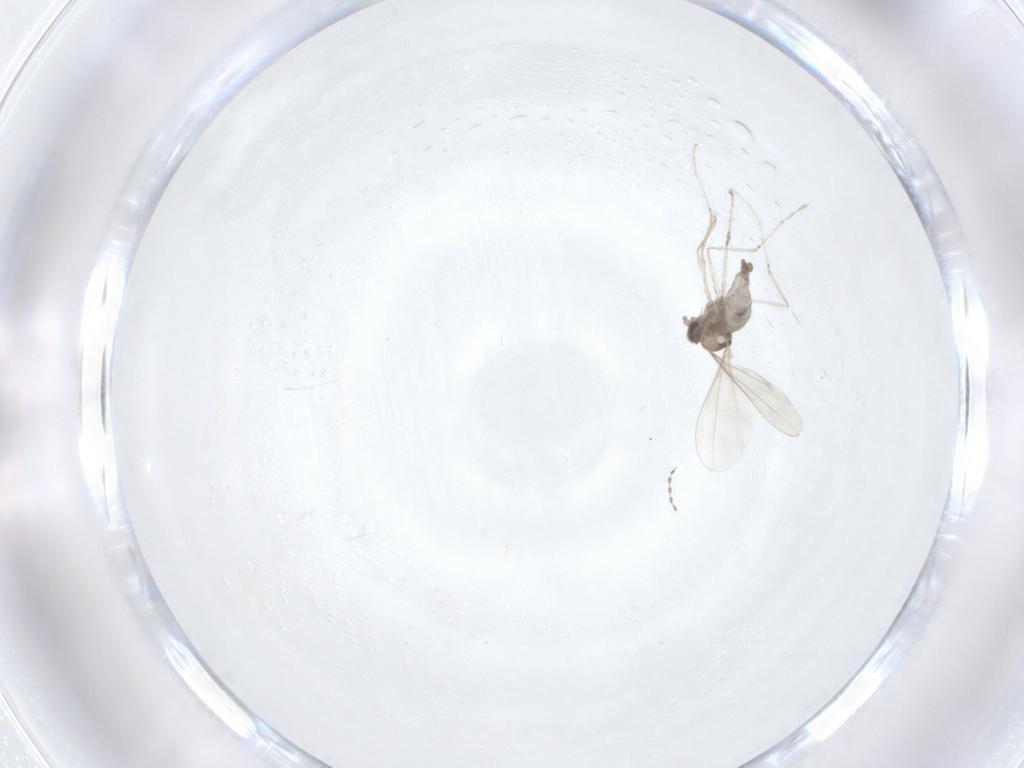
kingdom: Animalia
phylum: Arthropoda
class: Insecta
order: Diptera
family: Cecidomyiidae
